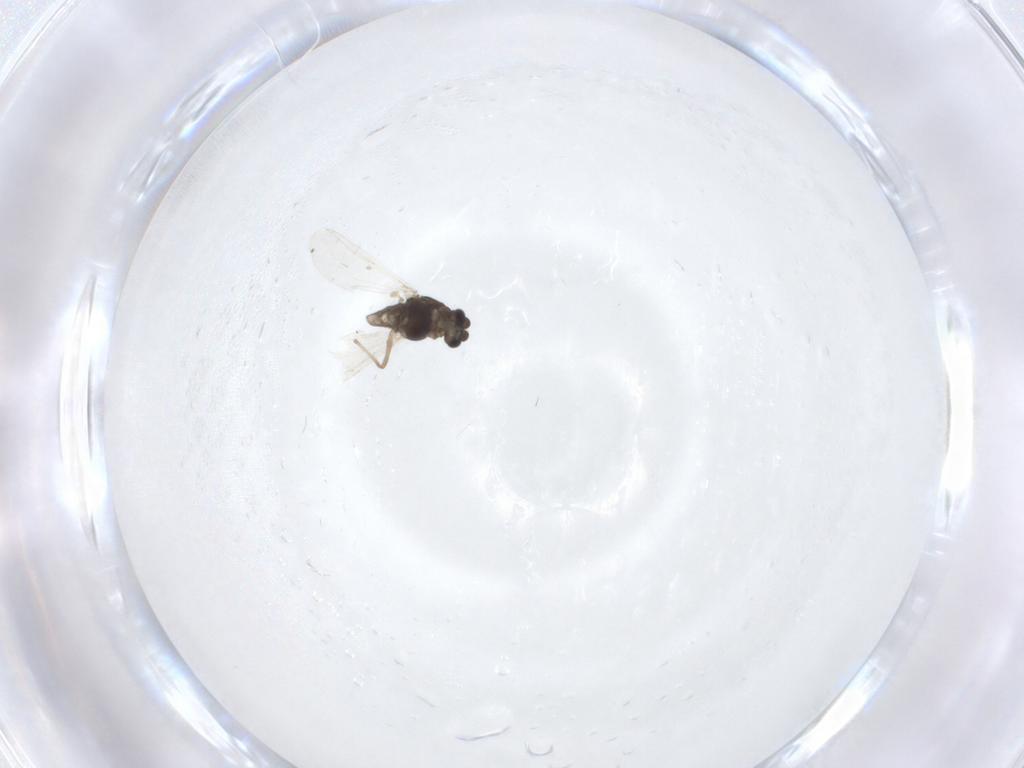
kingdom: Animalia
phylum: Arthropoda
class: Insecta
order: Diptera
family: Chironomidae
